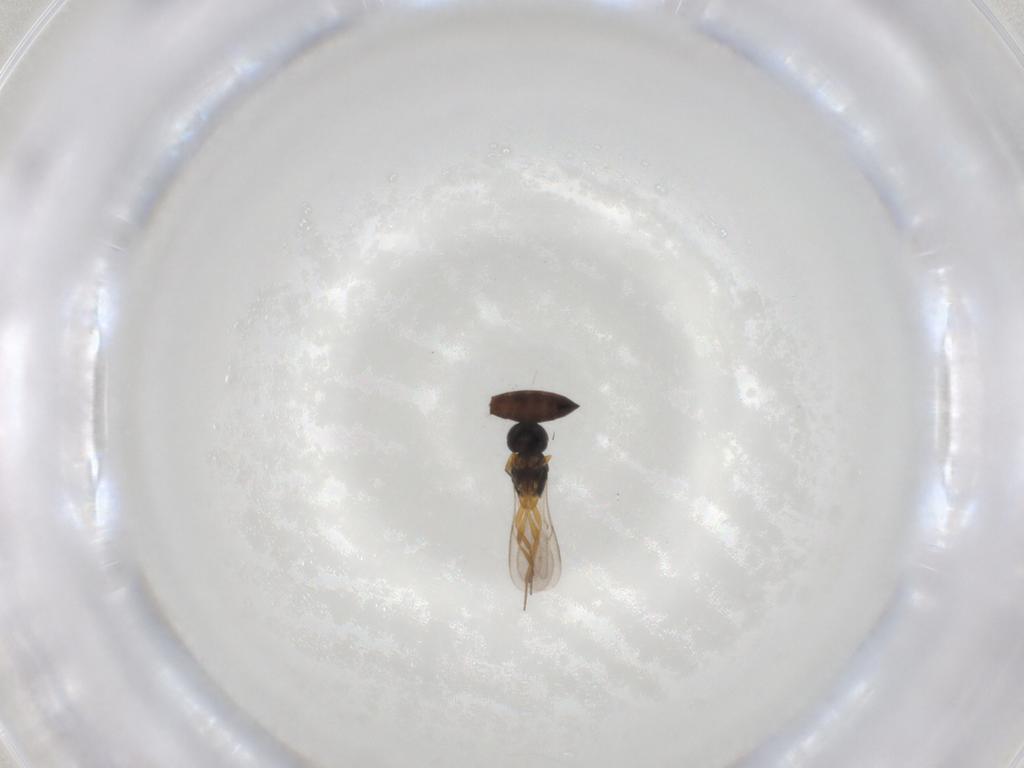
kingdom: Animalia
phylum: Arthropoda
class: Insecta
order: Hymenoptera
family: Scelionidae
